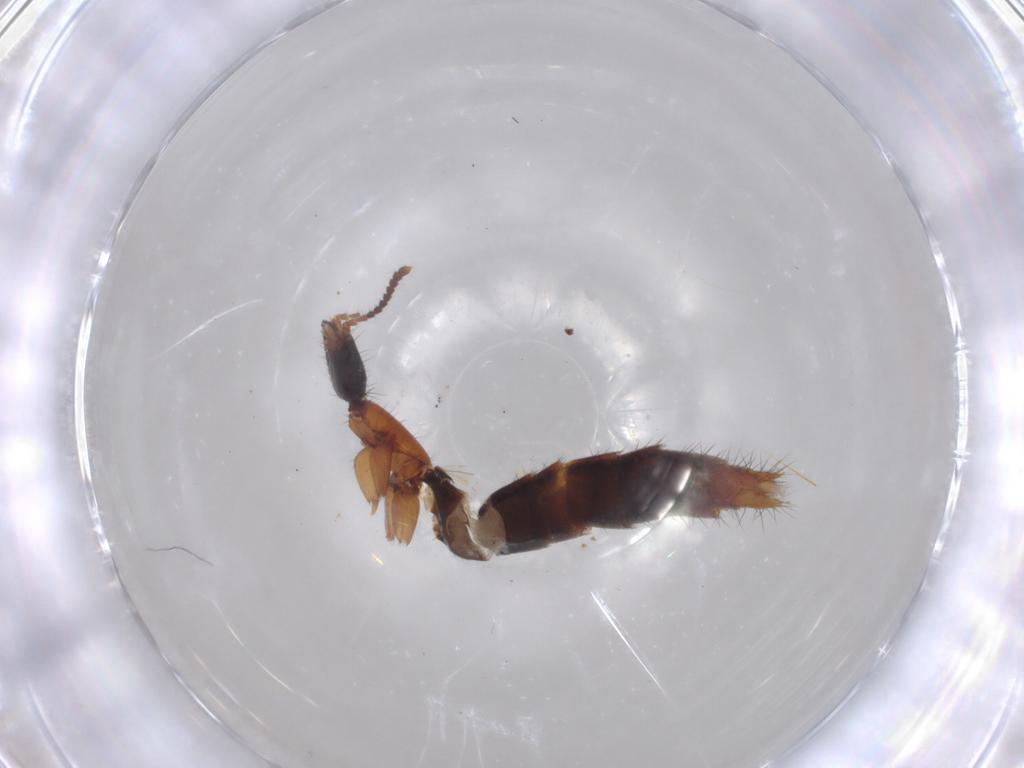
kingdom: Animalia
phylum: Arthropoda
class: Insecta
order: Coleoptera
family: Staphylinidae
